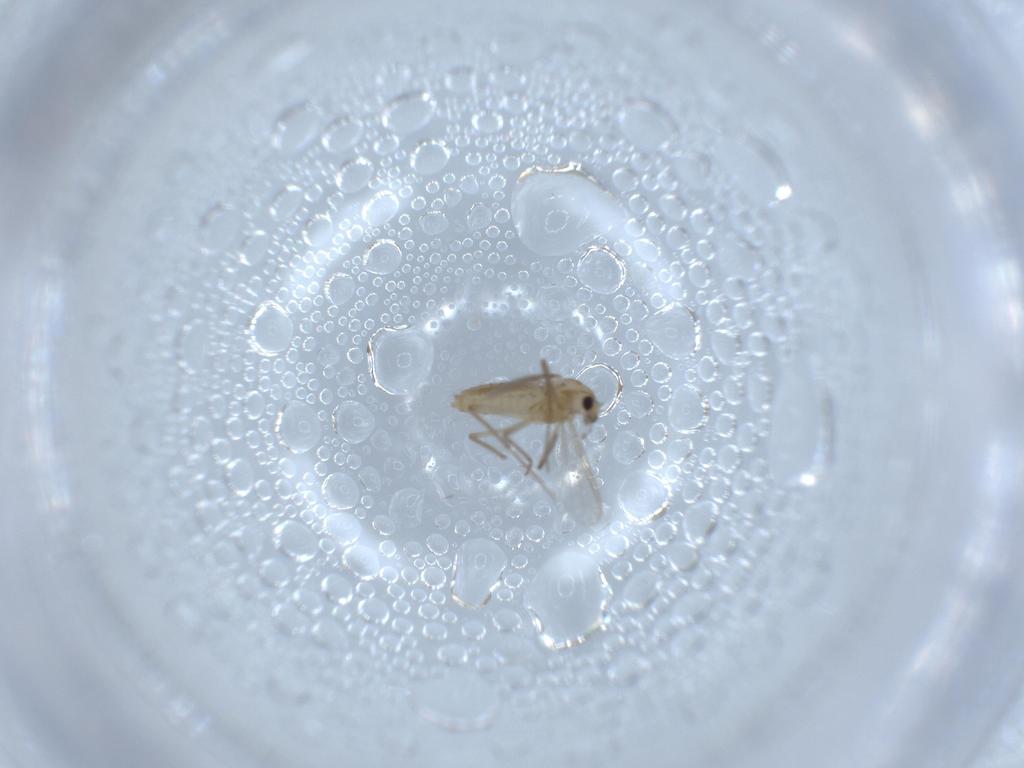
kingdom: Animalia
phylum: Arthropoda
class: Insecta
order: Diptera
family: Chironomidae
